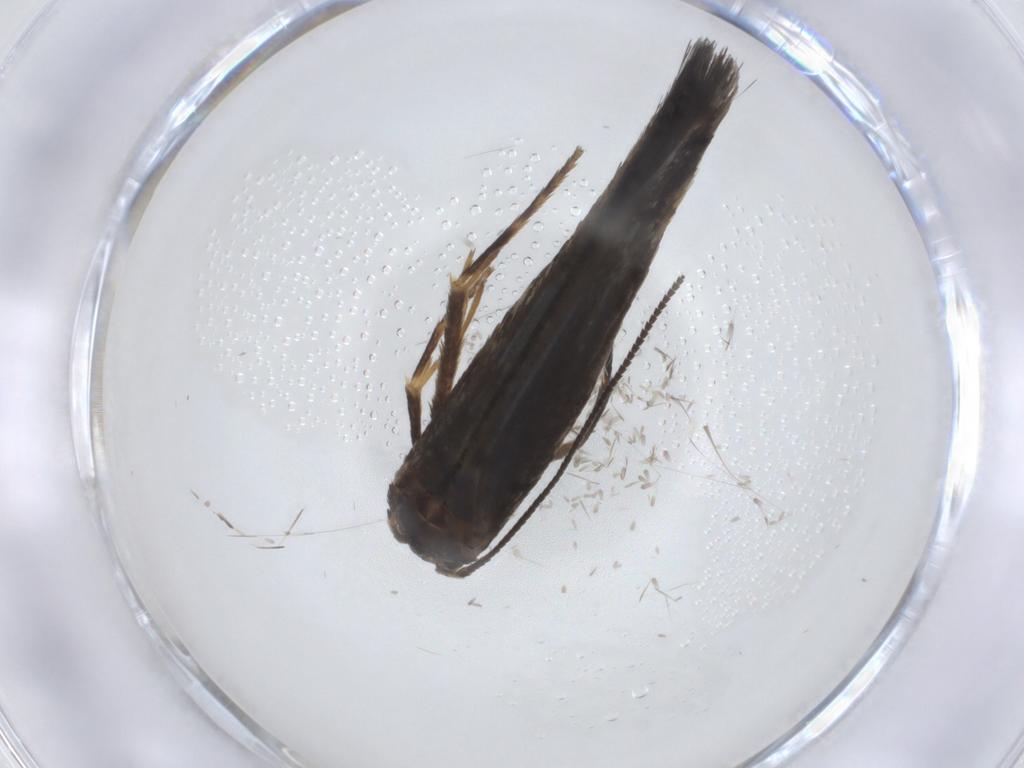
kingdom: Animalia
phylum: Arthropoda
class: Insecta
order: Lepidoptera
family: Nepticulidae
